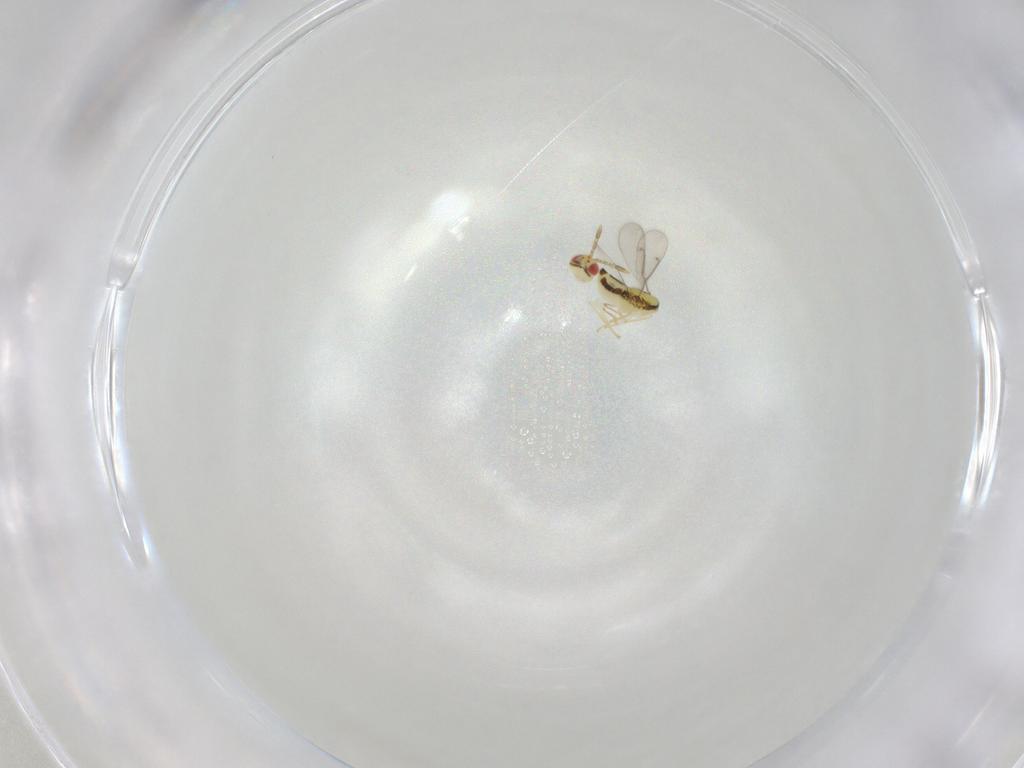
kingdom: Animalia
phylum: Arthropoda
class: Insecta
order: Hymenoptera
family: Aphelinidae
